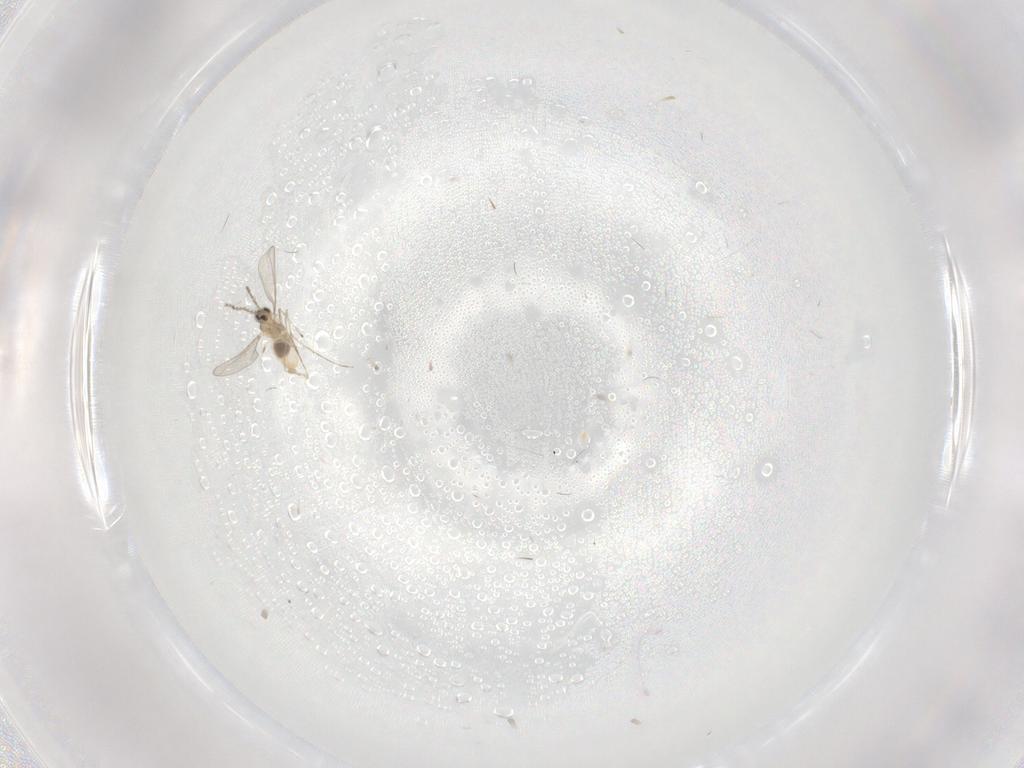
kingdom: Animalia
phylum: Arthropoda
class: Insecta
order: Diptera
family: Cecidomyiidae
